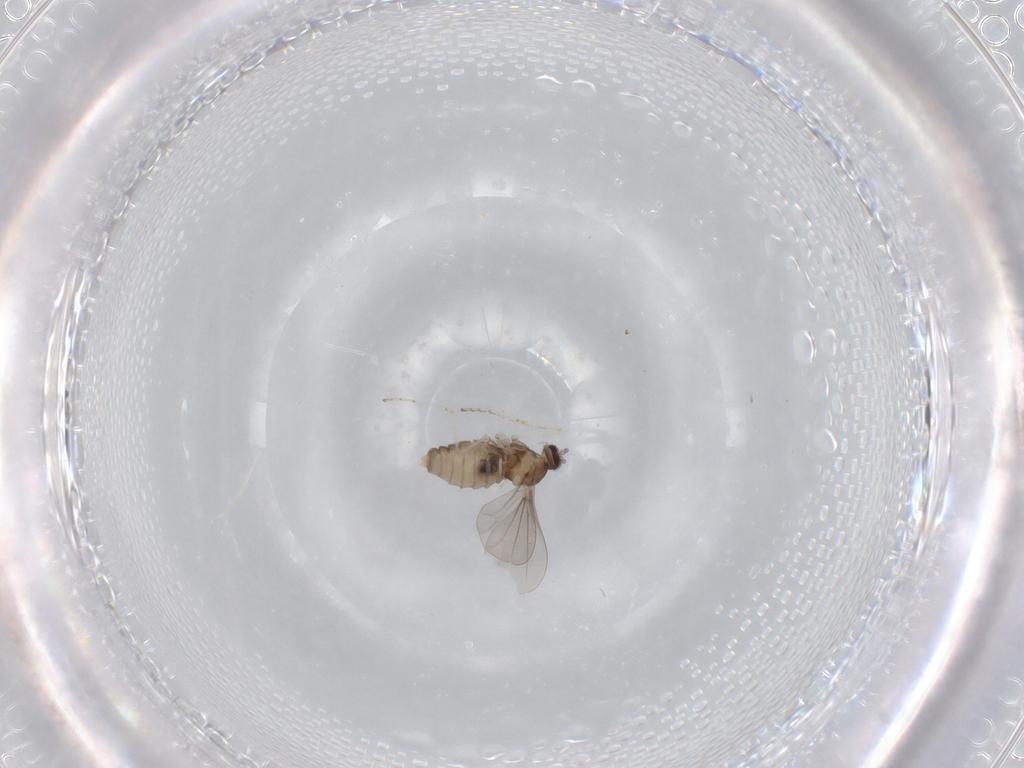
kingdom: Animalia
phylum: Arthropoda
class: Insecta
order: Diptera
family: Cecidomyiidae
